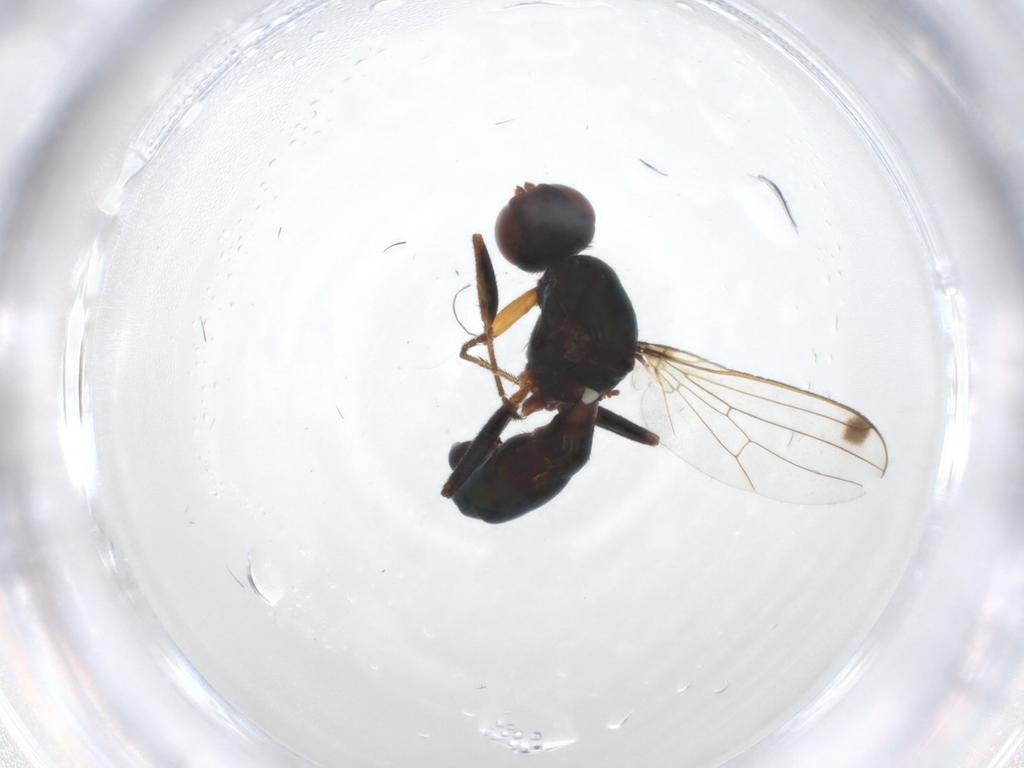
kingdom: Animalia
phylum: Arthropoda
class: Insecta
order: Diptera
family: Sepsidae
